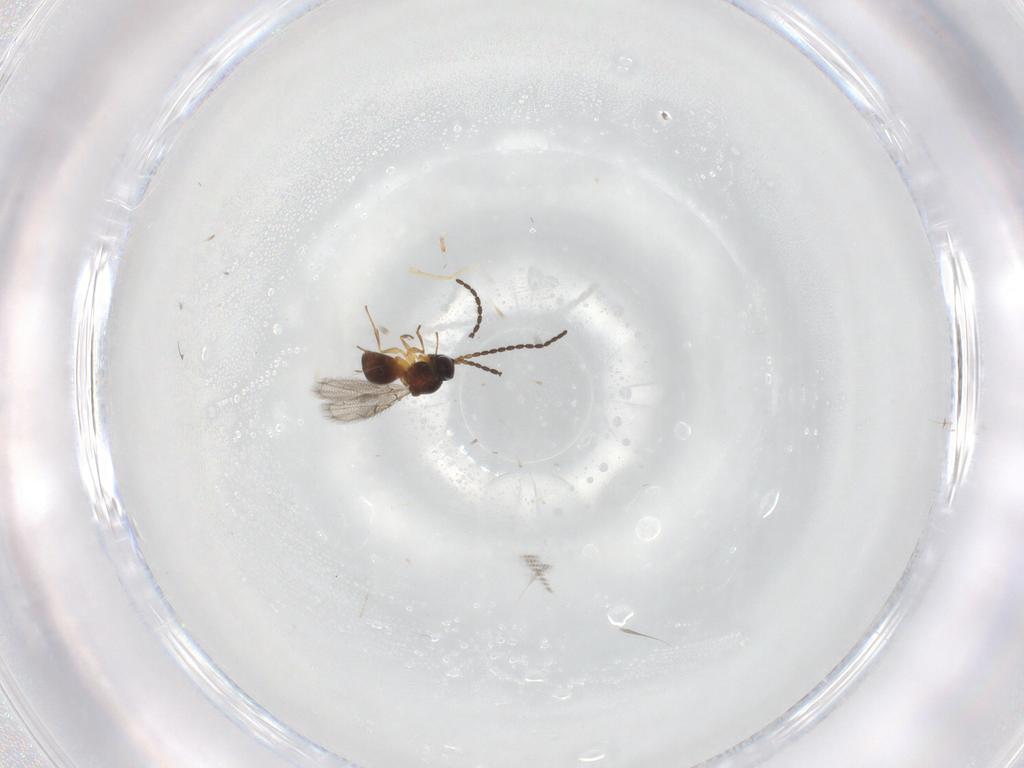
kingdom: Animalia
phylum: Arthropoda
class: Insecta
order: Hymenoptera
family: Figitidae
